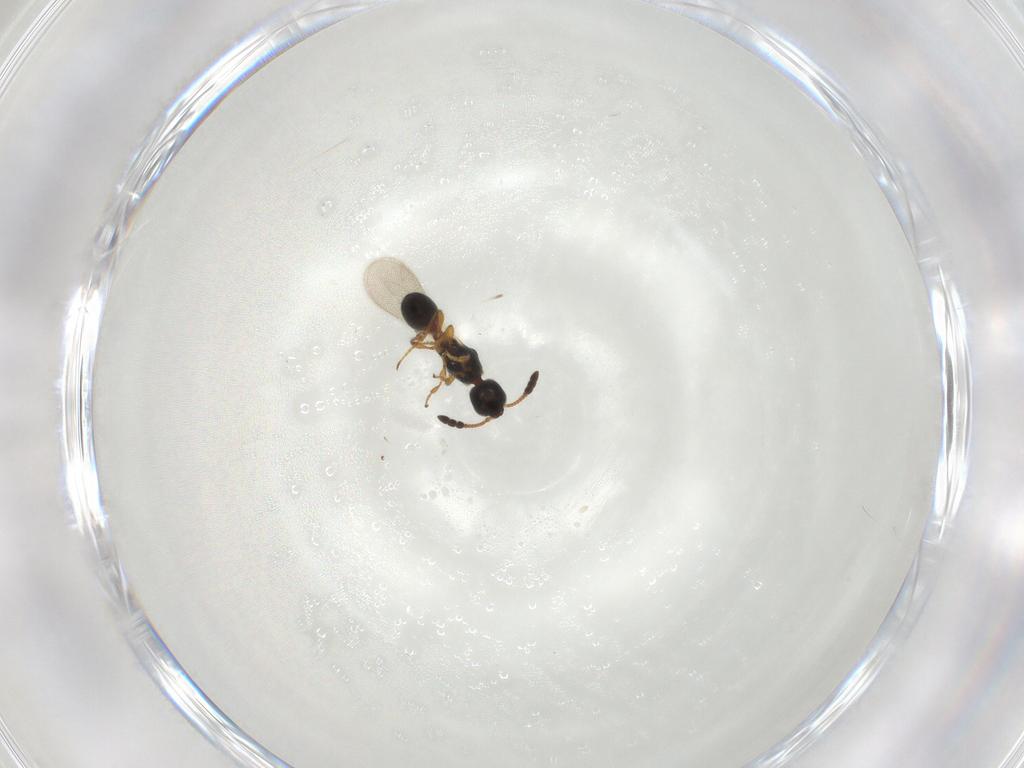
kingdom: Animalia
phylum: Arthropoda
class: Insecta
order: Hymenoptera
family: Diapriidae
